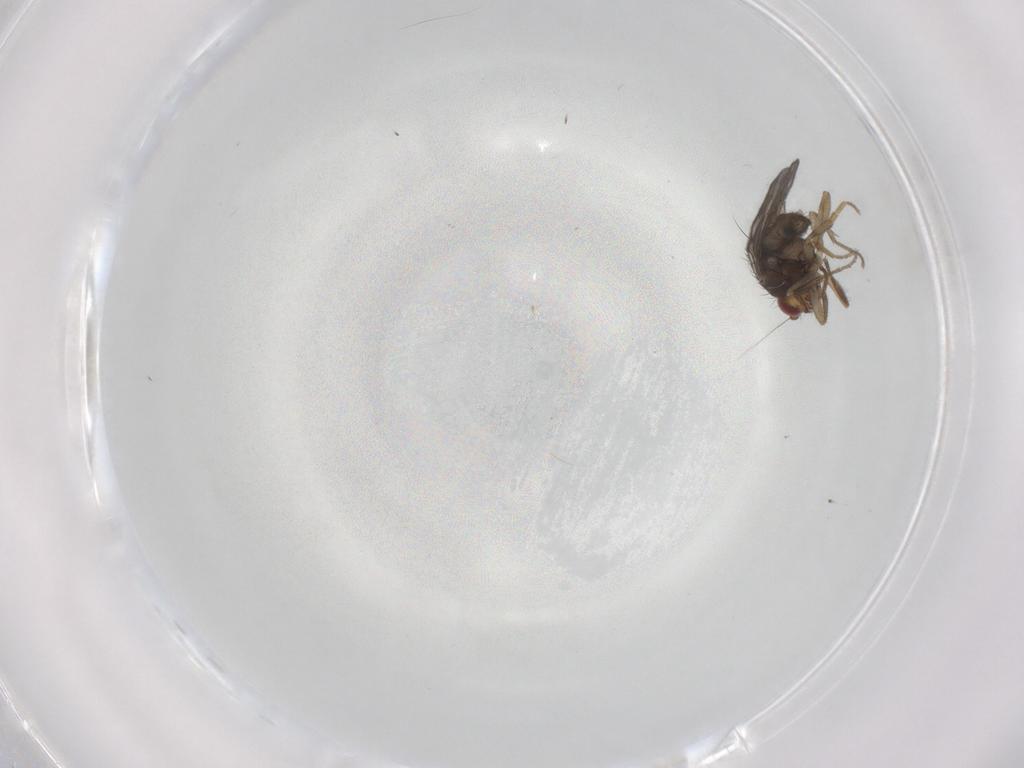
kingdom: Animalia
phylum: Arthropoda
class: Insecta
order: Diptera
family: Sphaeroceridae
